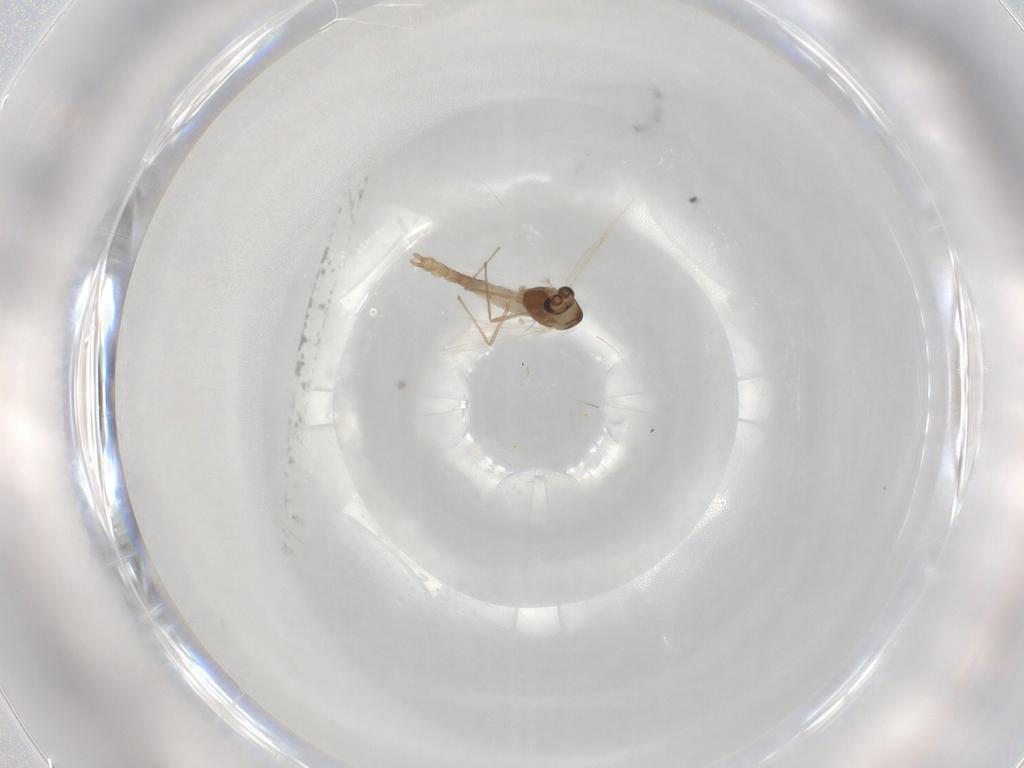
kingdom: Animalia
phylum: Arthropoda
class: Insecta
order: Diptera
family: Chironomidae
